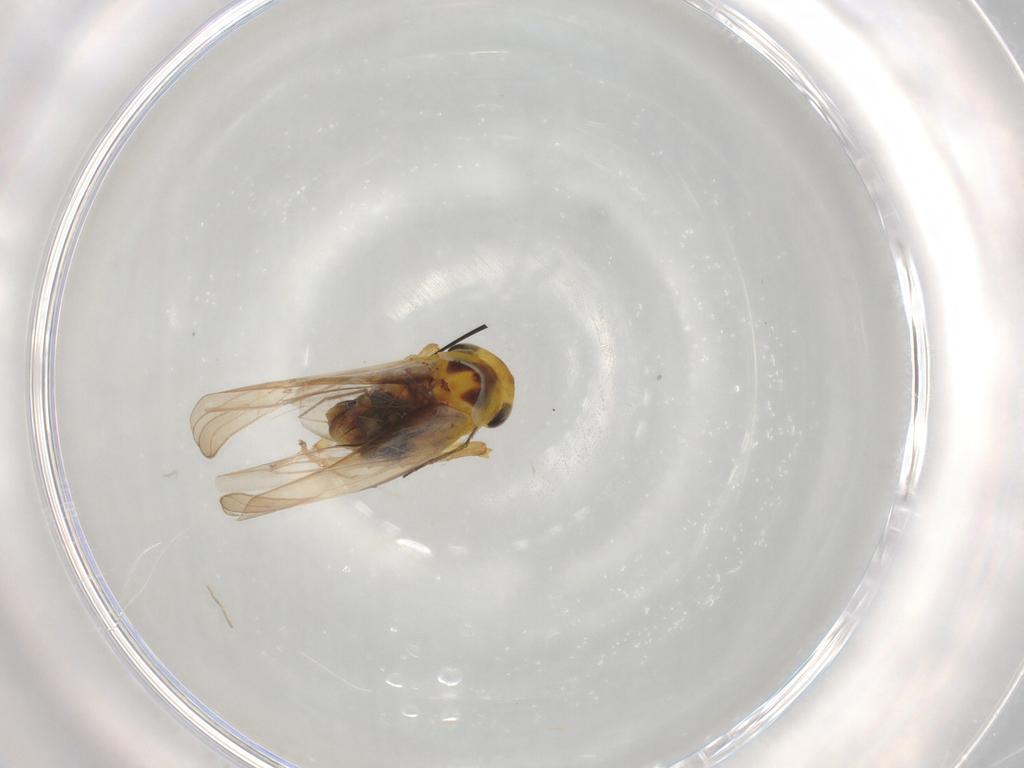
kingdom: Animalia
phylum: Arthropoda
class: Insecta
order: Hemiptera
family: Cicadellidae
